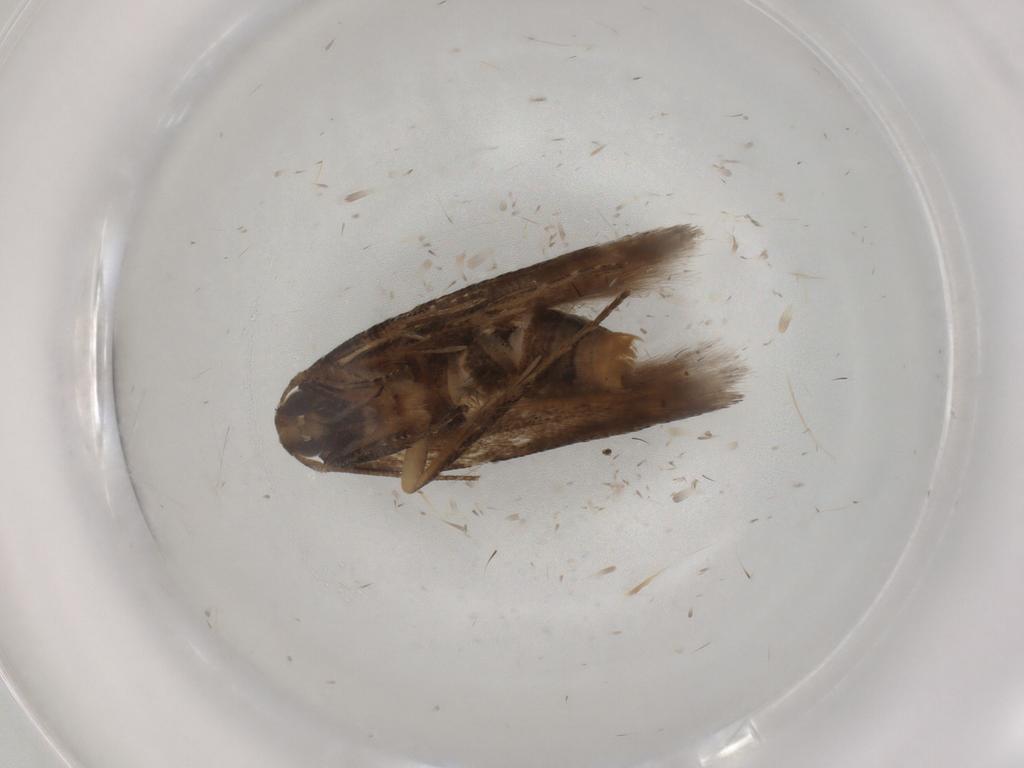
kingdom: Animalia
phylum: Arthropoda
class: Insecta
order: Lepidoptera
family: Cosmopterigidae
